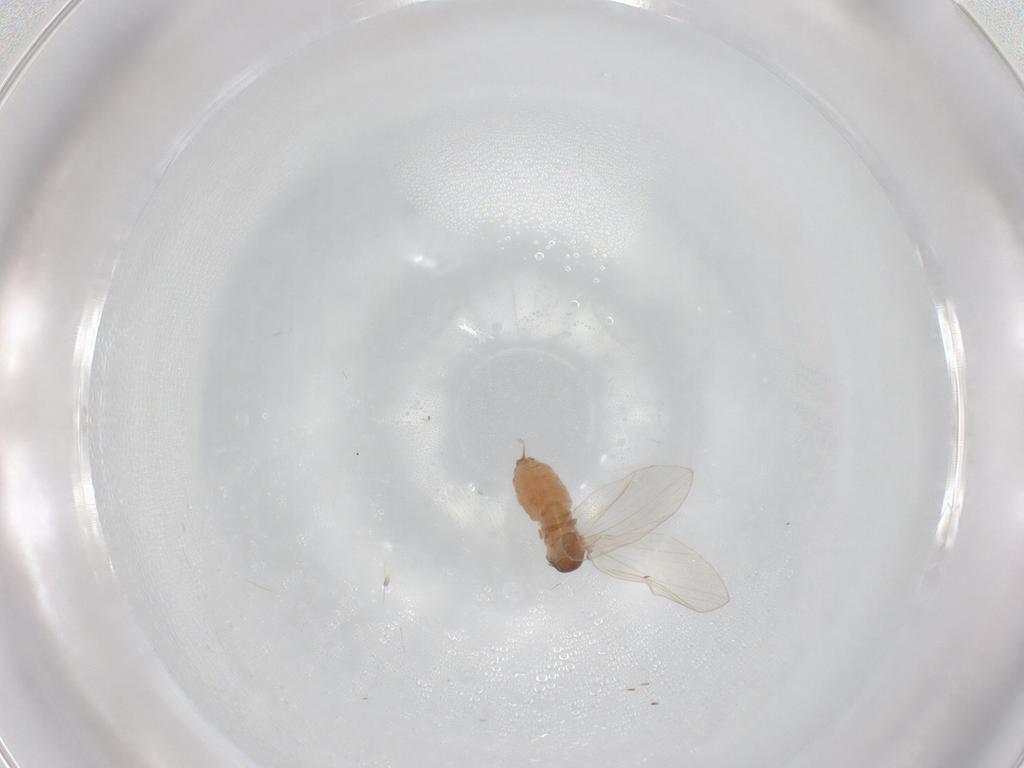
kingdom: Animalia
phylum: Arthropoda
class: Insecta
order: Diptera
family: Psychodidae
